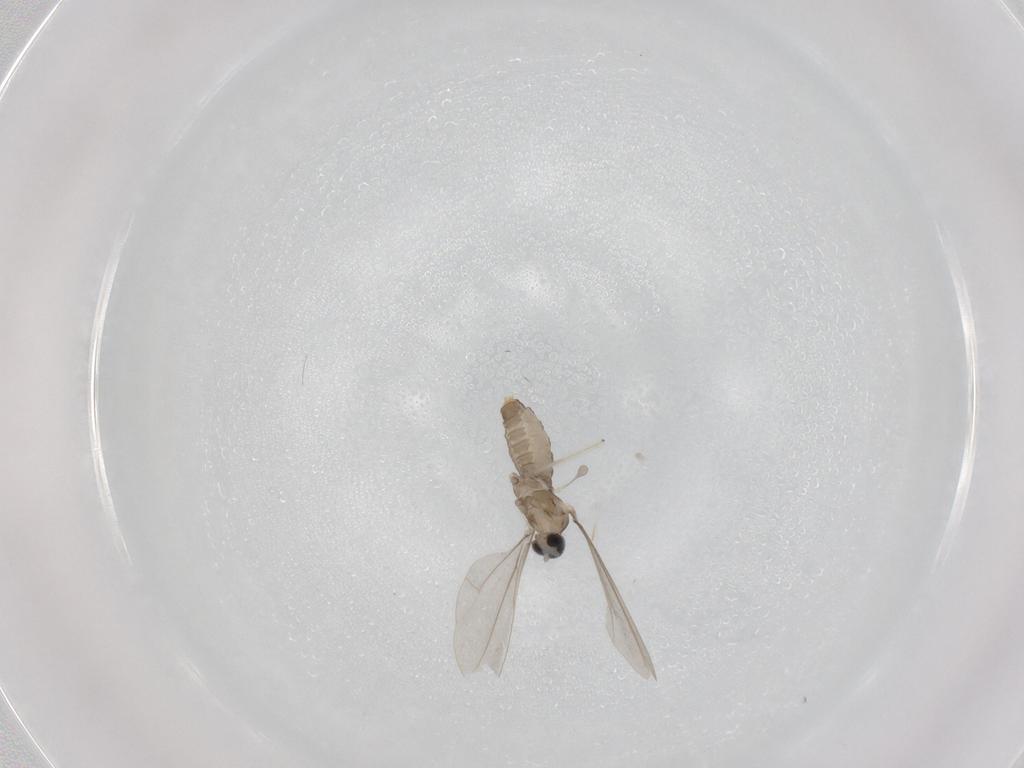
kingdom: Animalia
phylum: Arthropoda
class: Insecta
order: Diptera
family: Cecidomyiidae
